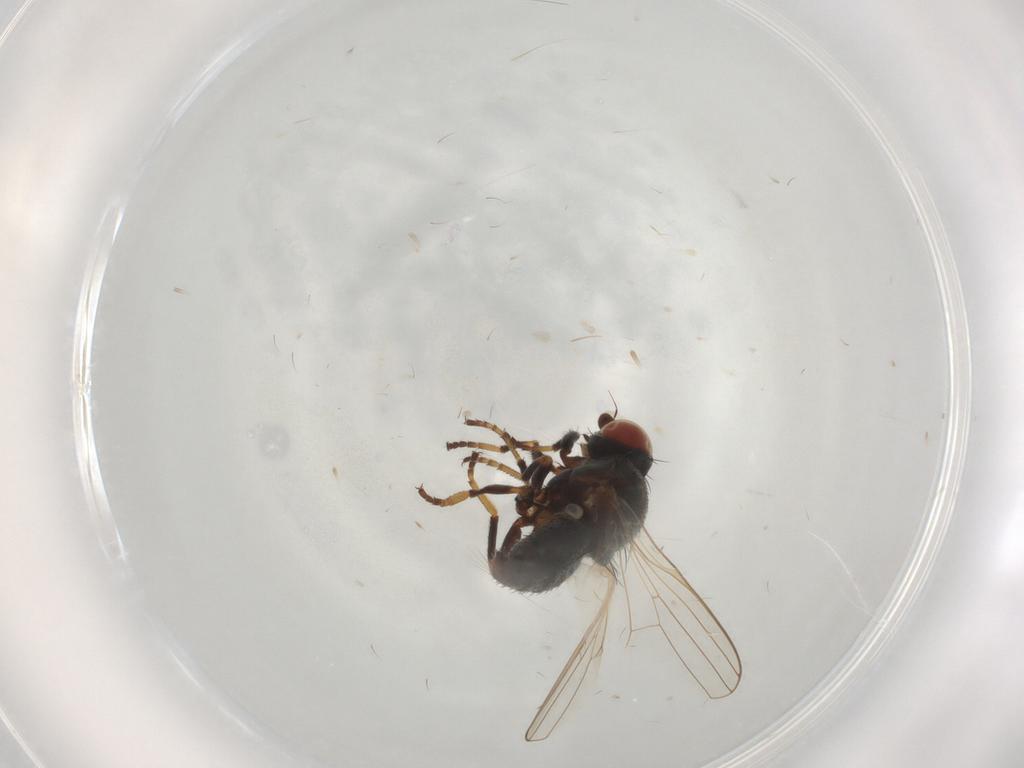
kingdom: Animalia
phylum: Arthropoda
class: Insecta
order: Diptera
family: Chamaemyiidae
